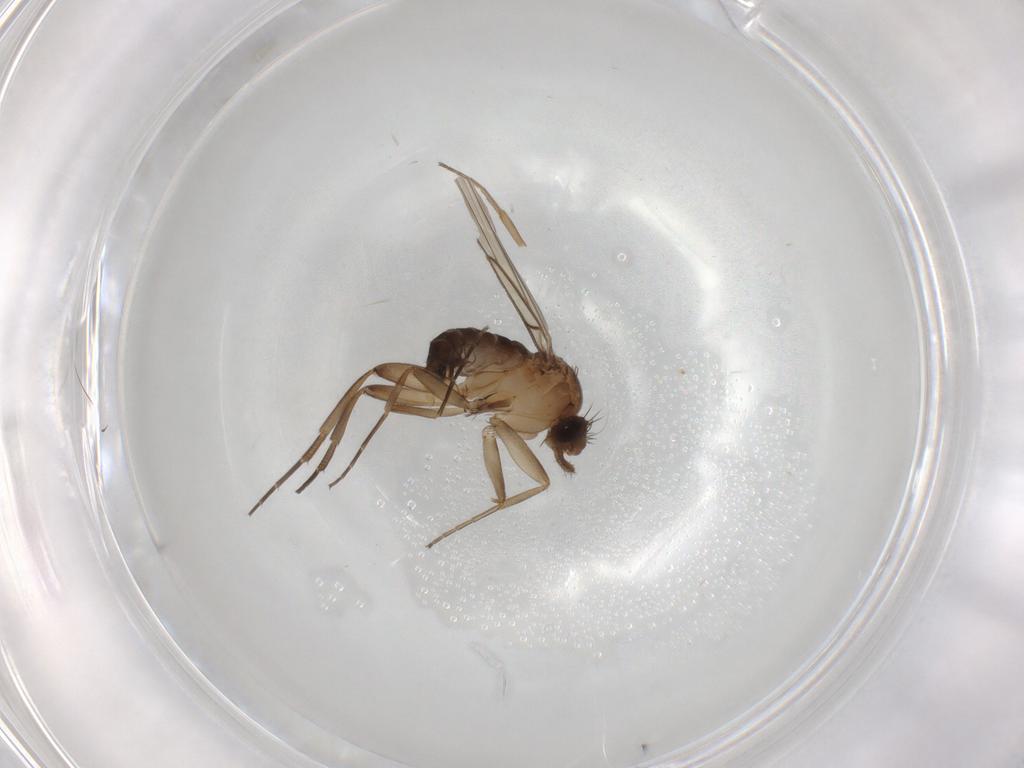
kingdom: Animalia
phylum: Arthropoda
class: Insecta
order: Diptera
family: Phoridae
